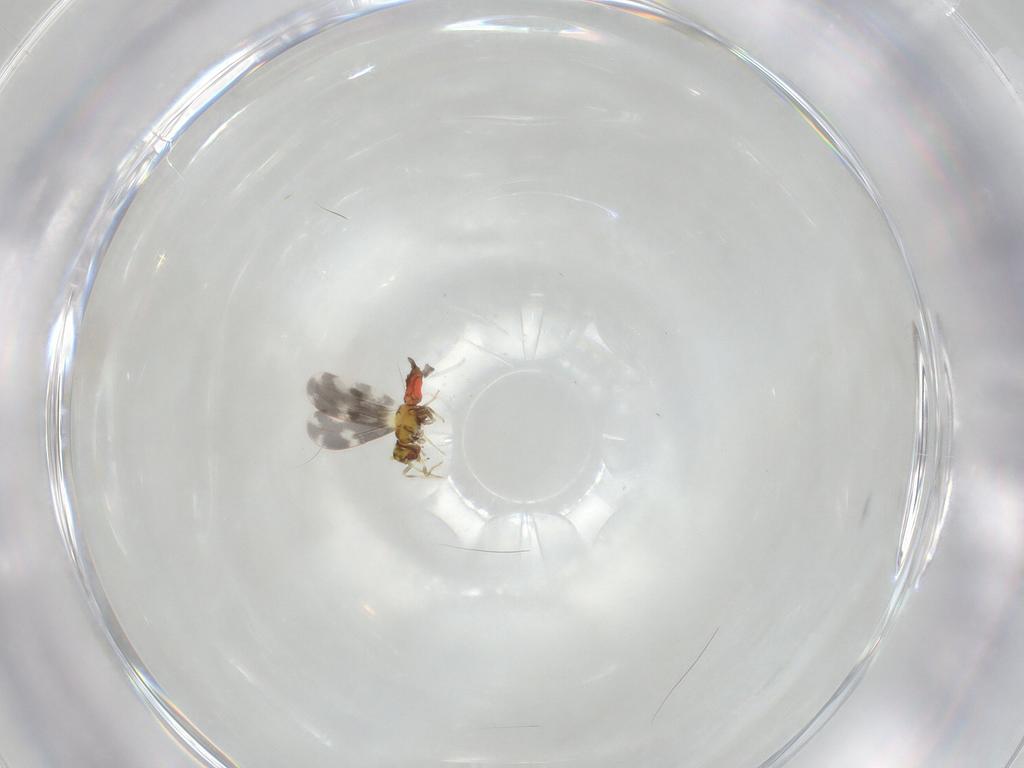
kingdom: Animalia
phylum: Arthropoda
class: Insecta
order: Hemiptera
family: Aleyrodidae
